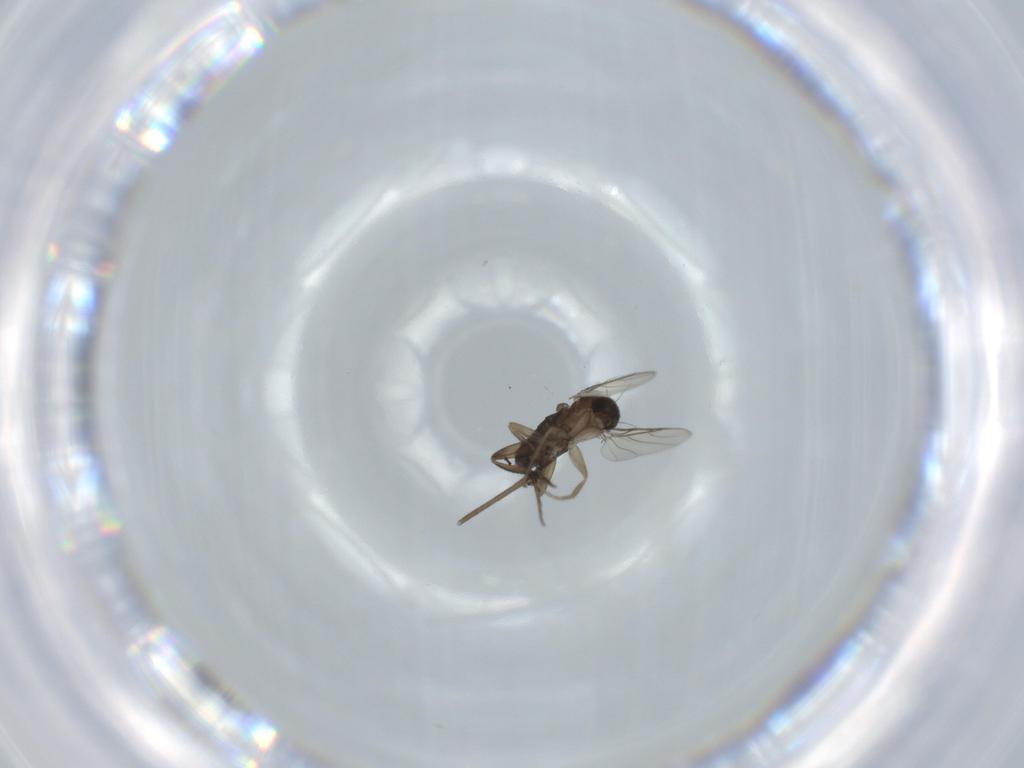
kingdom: Animalia
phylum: Arthropoda
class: Insecta
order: Diptera
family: Phoridae
